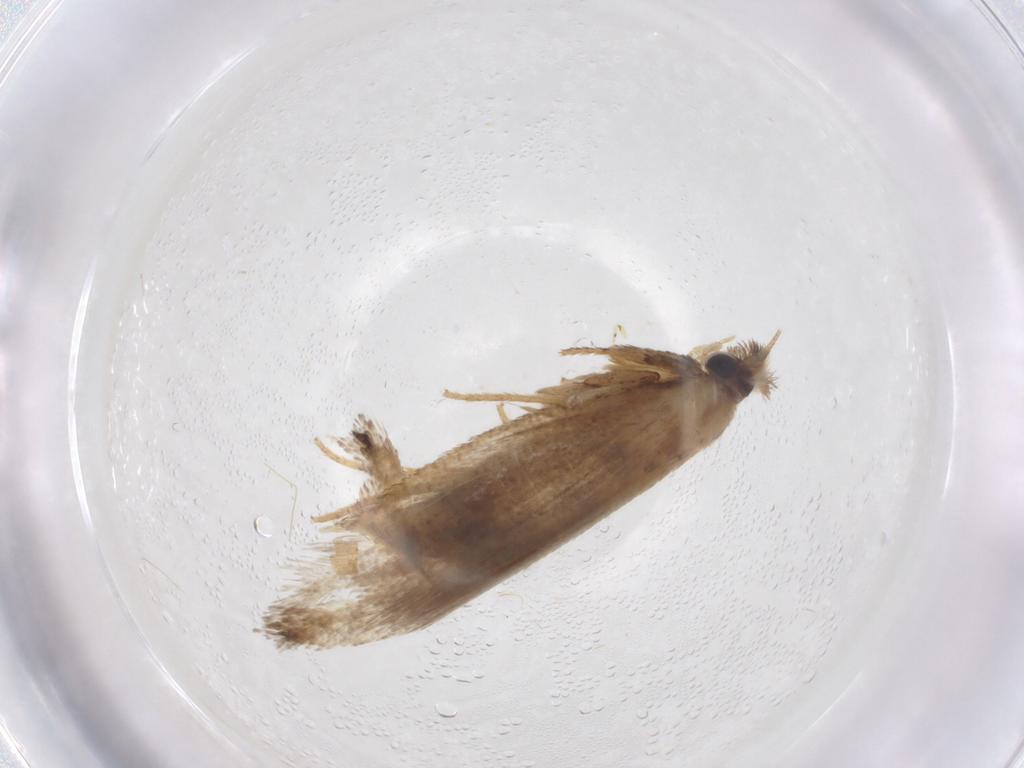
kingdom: Animalia
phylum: Arthropoda
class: Insecta
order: Lepidoptera
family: Nepticulidae
